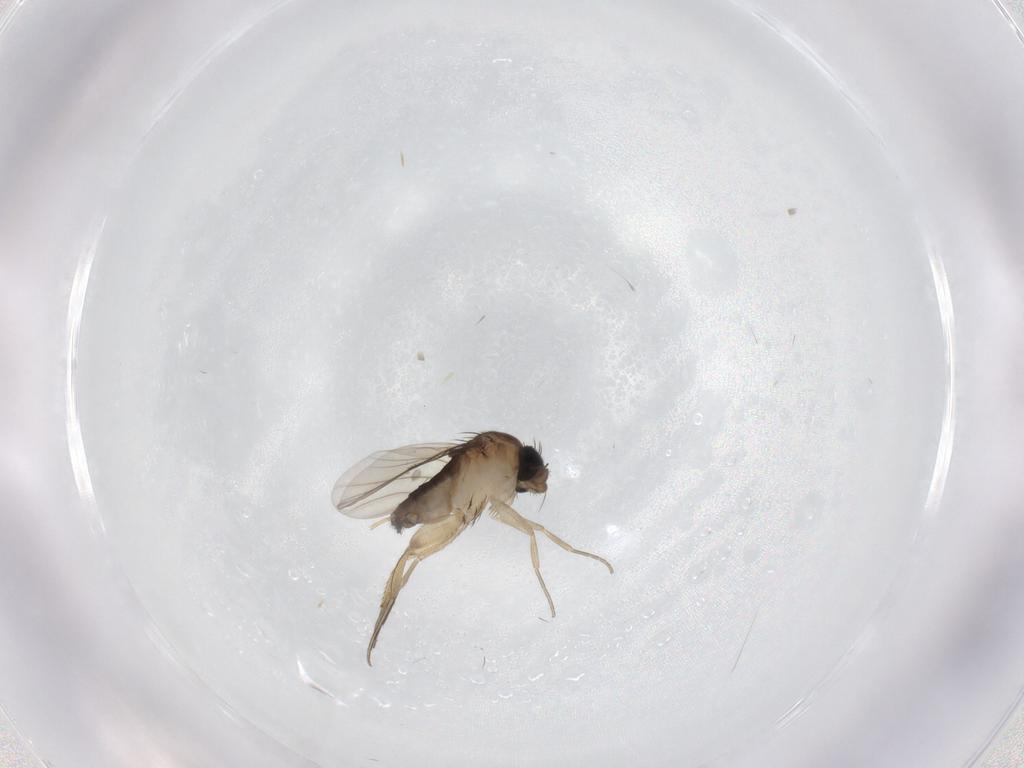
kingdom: Animalia
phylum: Arthropoda
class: Insecta
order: Diptera
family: Phoridae
